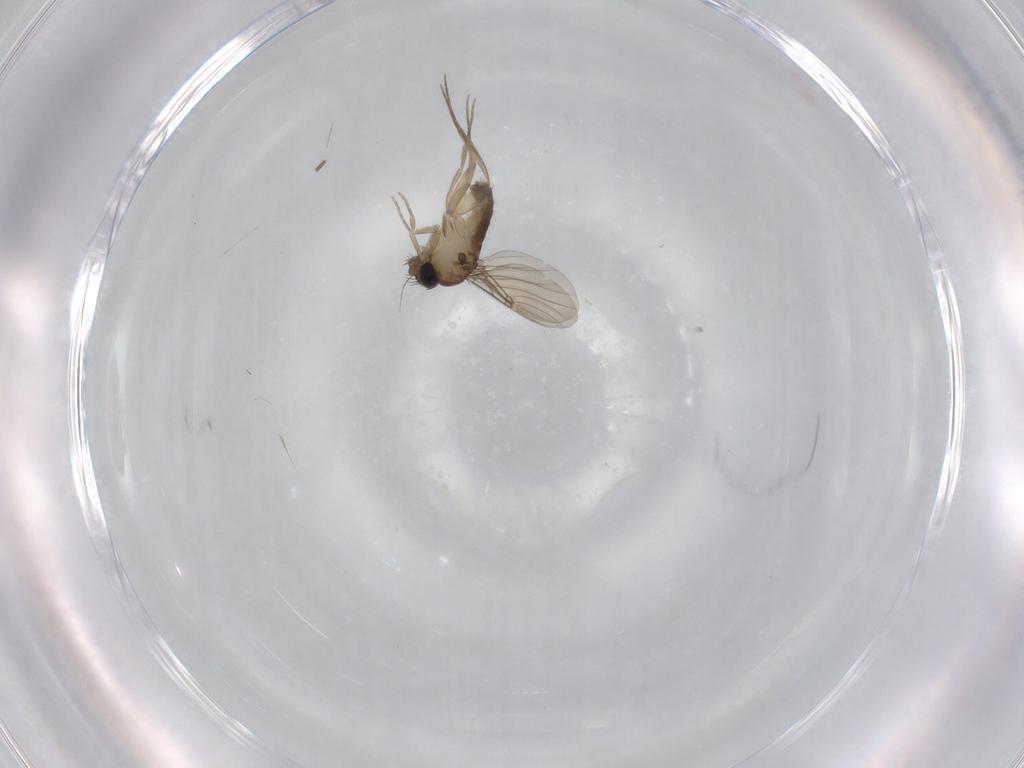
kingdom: Animalia
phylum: Arthropoda
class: Insecta
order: Diptera
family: Phoridae
